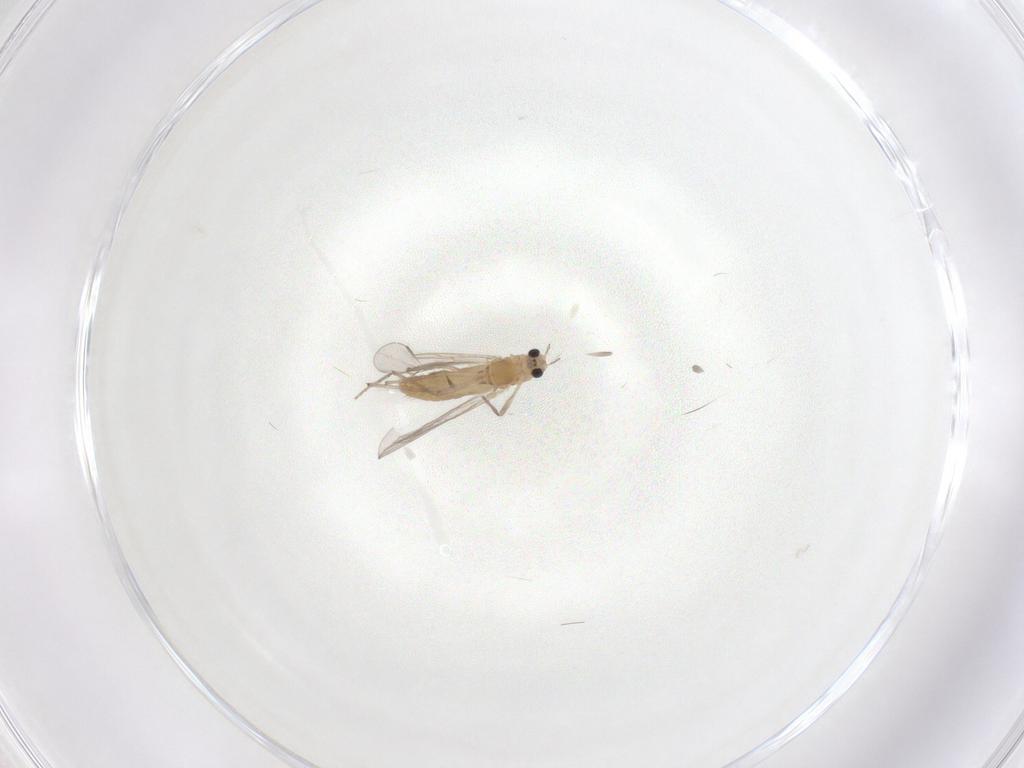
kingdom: Animalia
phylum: Arthropoda
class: Insecta
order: Diptera
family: Chironomidae
